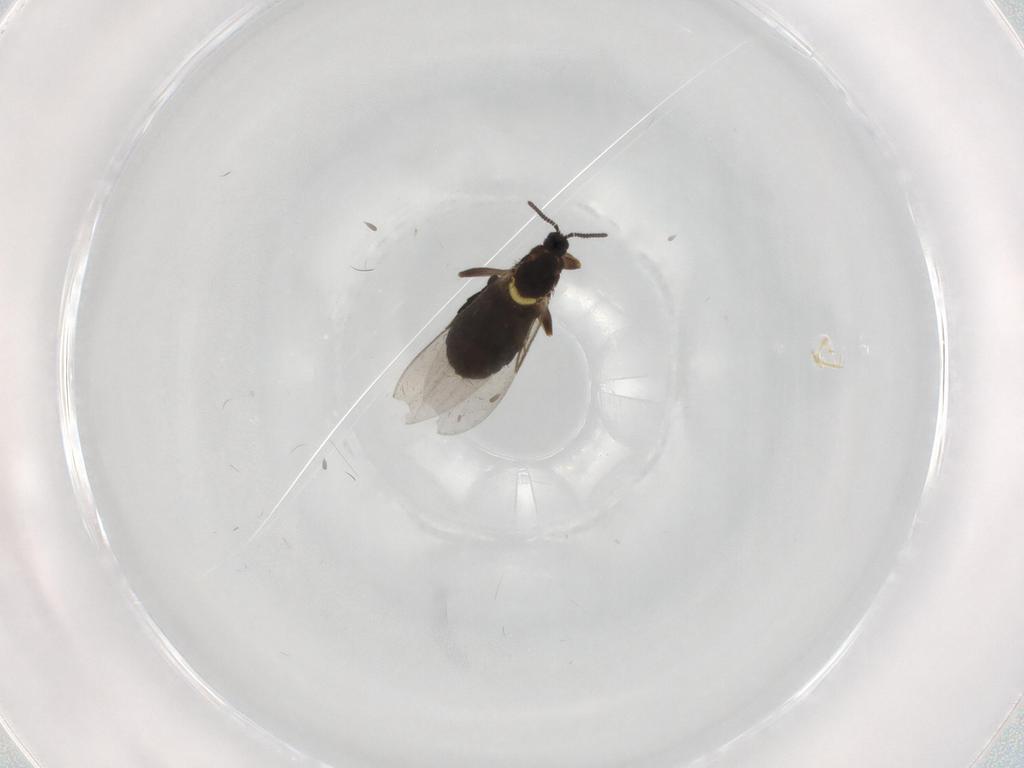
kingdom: Animalia
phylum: Arthropoda
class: Insecta
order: Diptera
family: Scatopsidae
